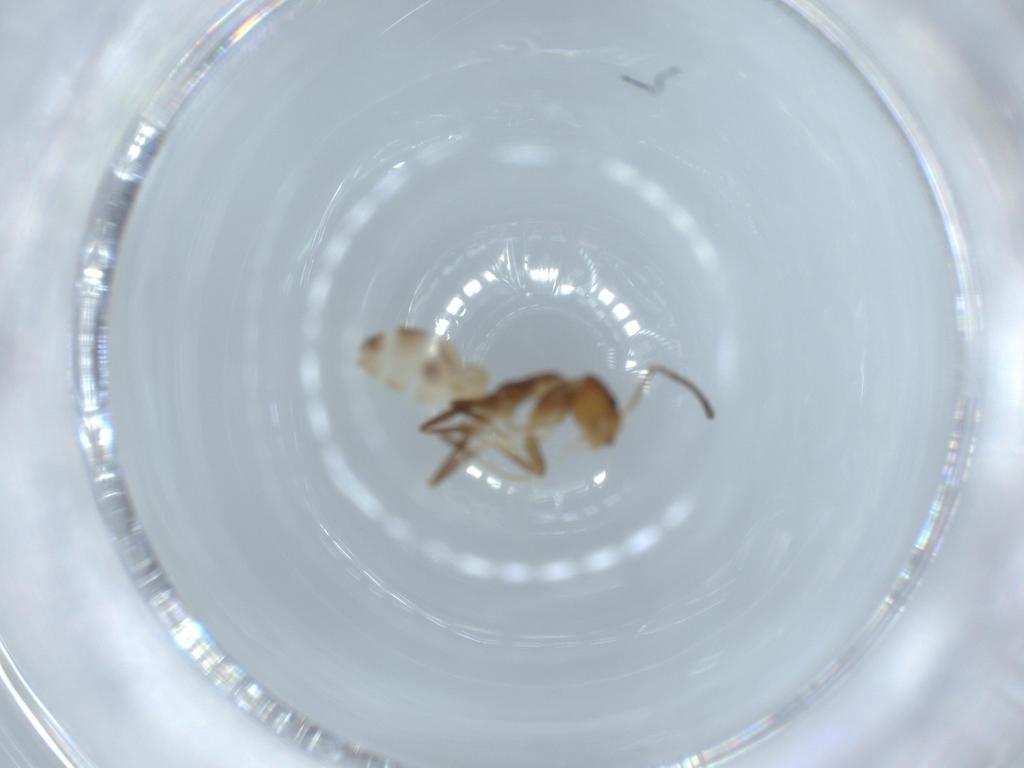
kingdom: Animalia
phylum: Arthropoda
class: Insecta
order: Hymenoptera
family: Formicidae
